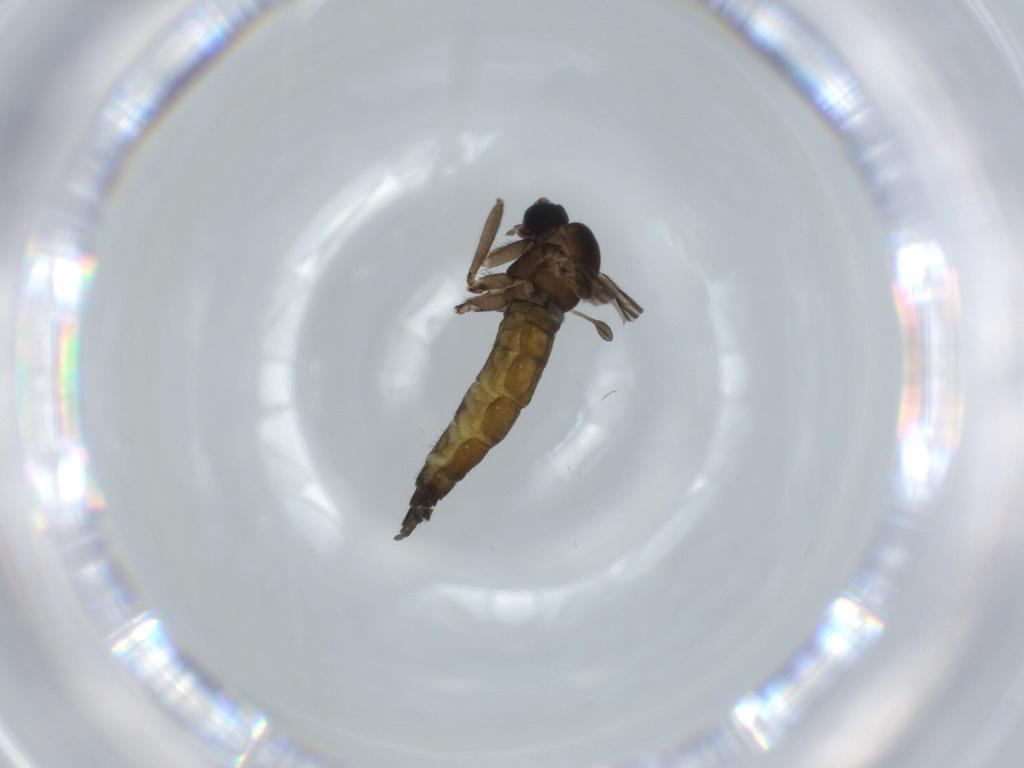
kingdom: Animalia
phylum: Arthropoda
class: Insecta
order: Diptera
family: Sciaridae
